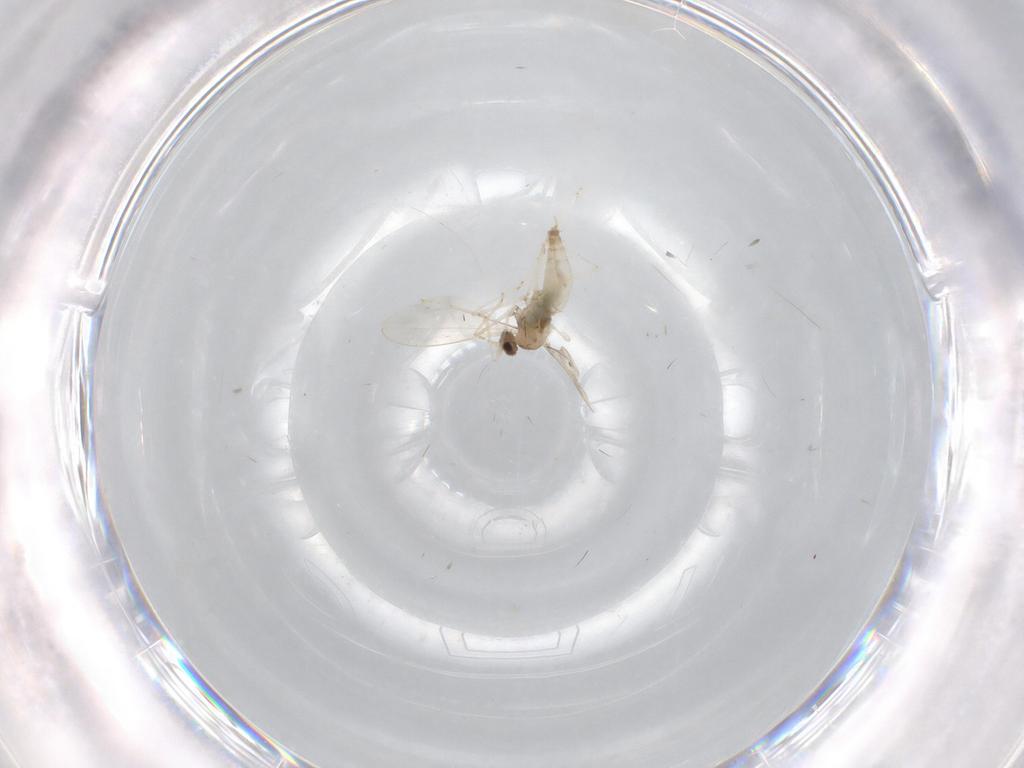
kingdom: Animalia
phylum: Arthropoda
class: Insecta
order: Diptera
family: Chironomidae
